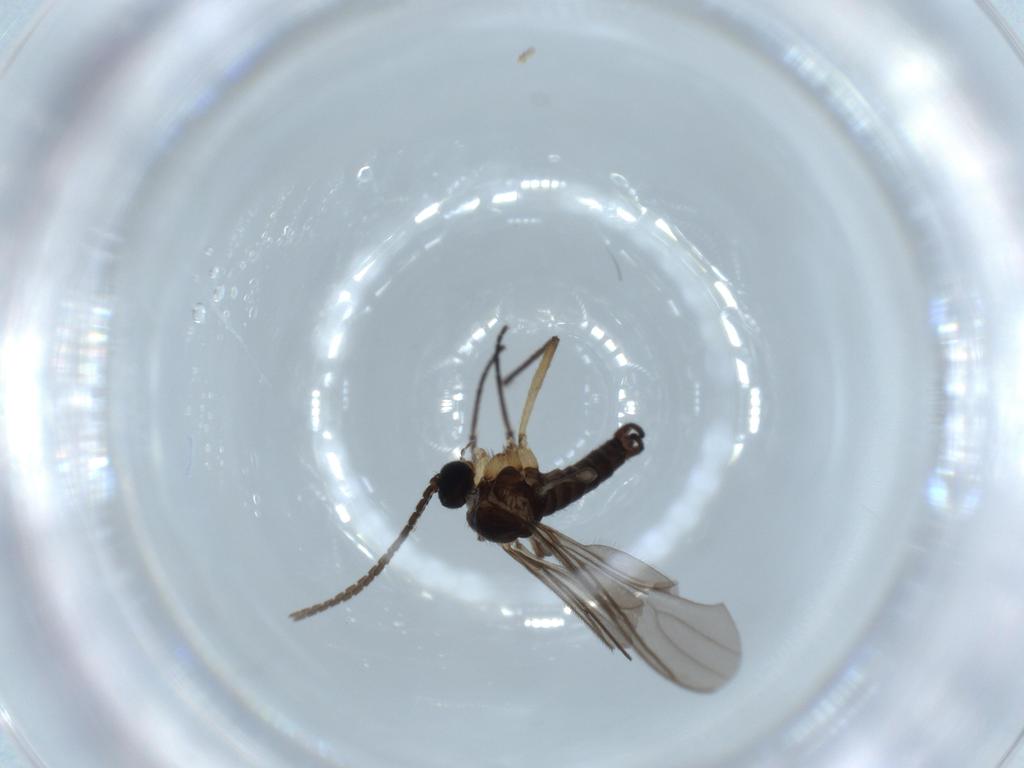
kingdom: Animalia
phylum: Arthropoda
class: Insecta
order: Diptera
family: Sciaridae
